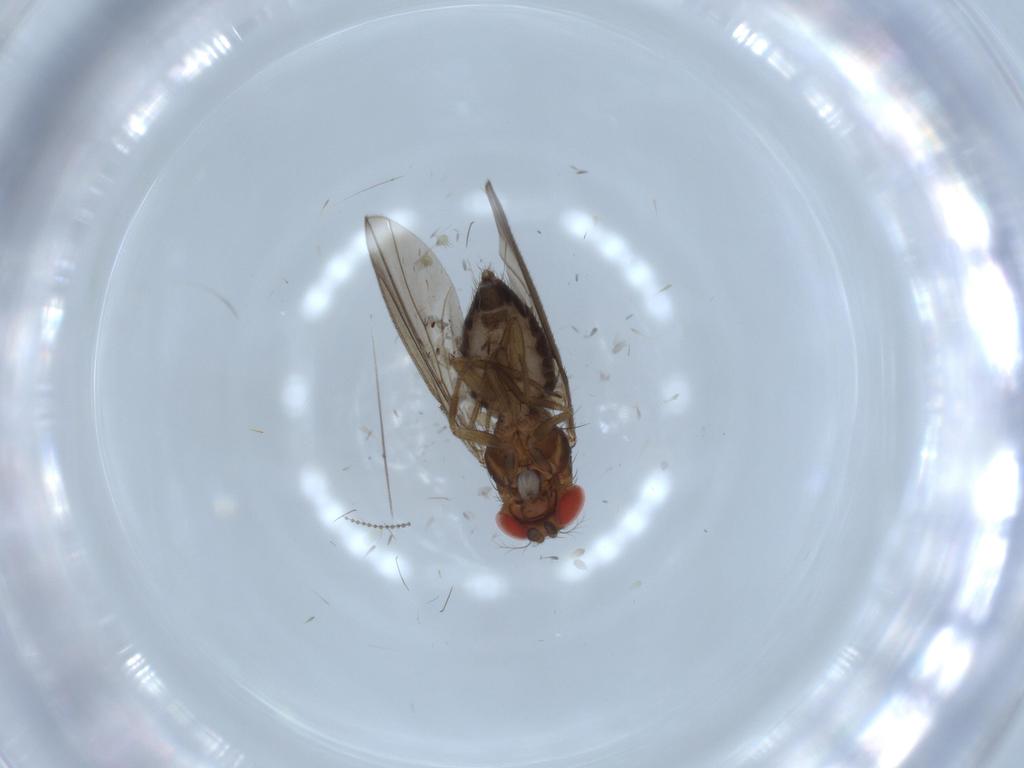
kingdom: Animalia
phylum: Arthropoda
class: Insecta
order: Diptera
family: Drosophilidae
